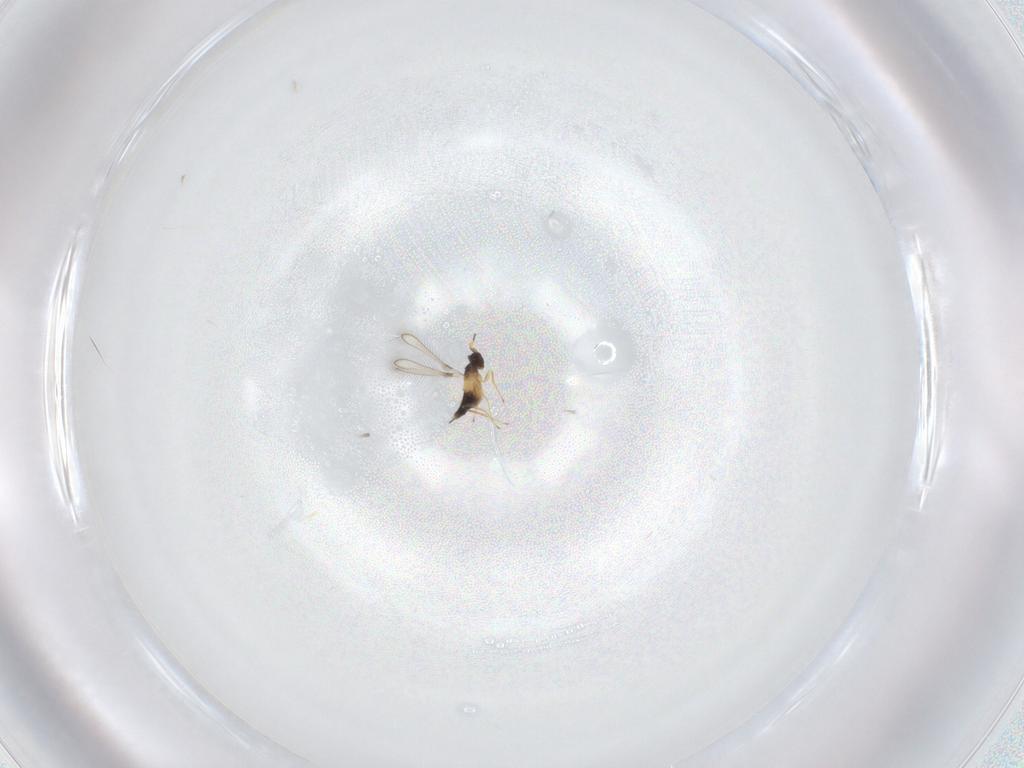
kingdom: Animalia
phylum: Arthropoda
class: Insecta
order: Hymenoptera
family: Mymaridae
